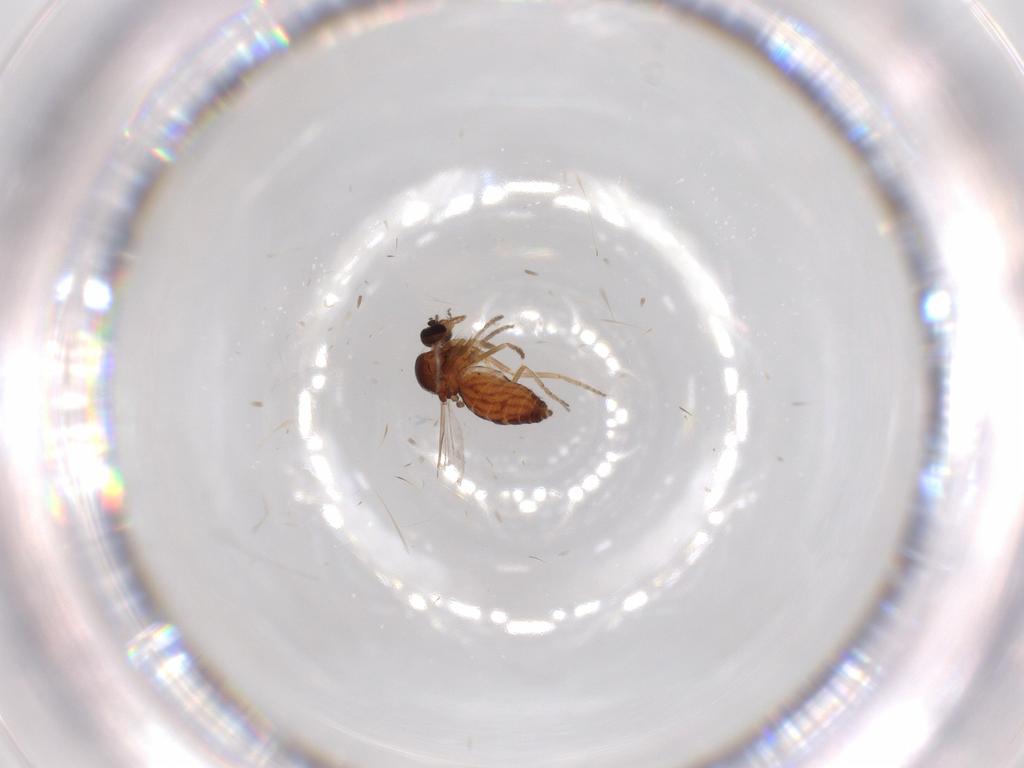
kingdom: Animalia
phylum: Arthropoda
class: Insecta
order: Diptera
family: Ceratopogonidae
